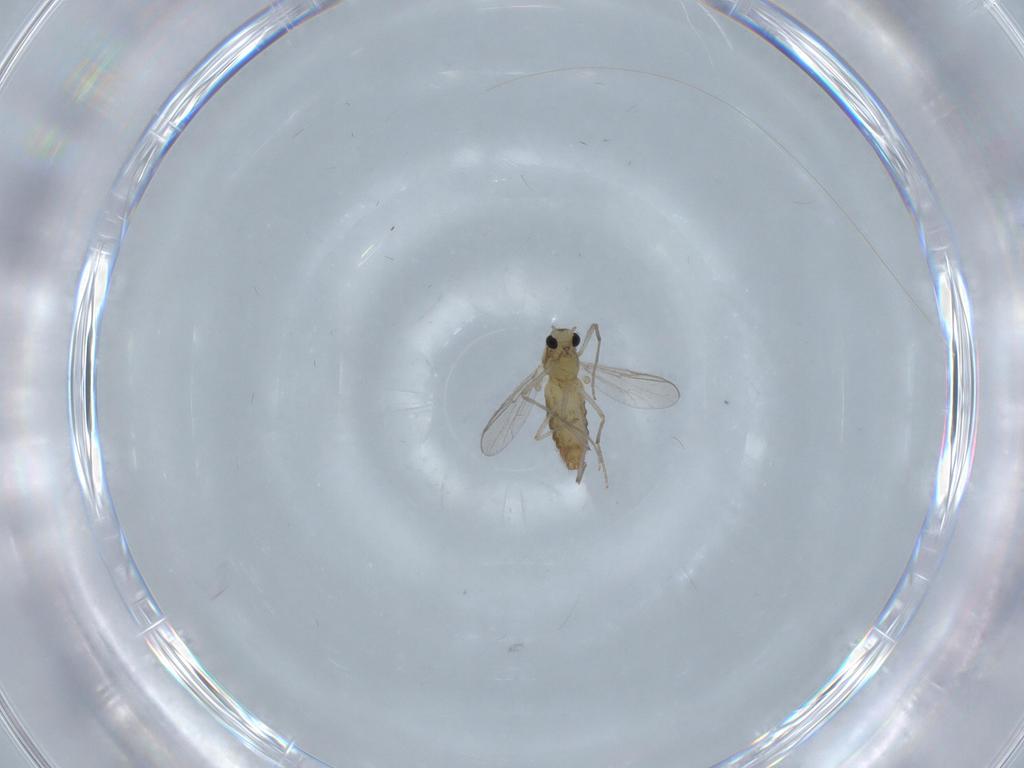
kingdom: Animalia
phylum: Arthropoda
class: Insecta
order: Diptera
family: Chironomidae
